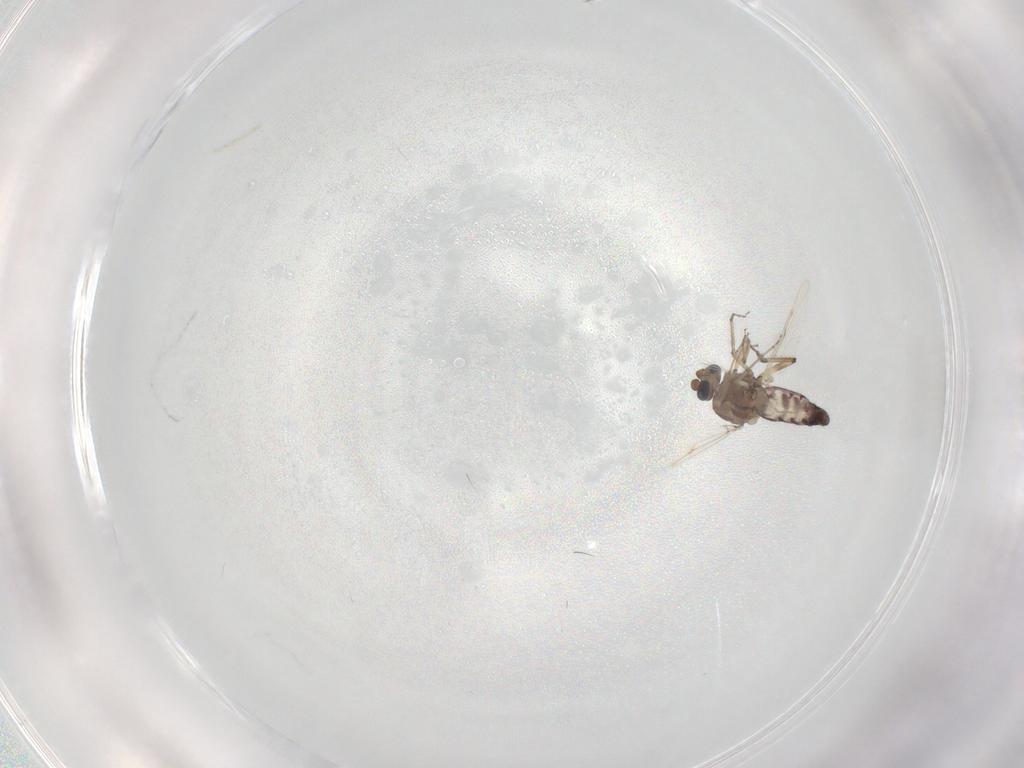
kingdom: Animalia
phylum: Arthropoda
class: Insecta
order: Diptera
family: Ceratopogonidae
